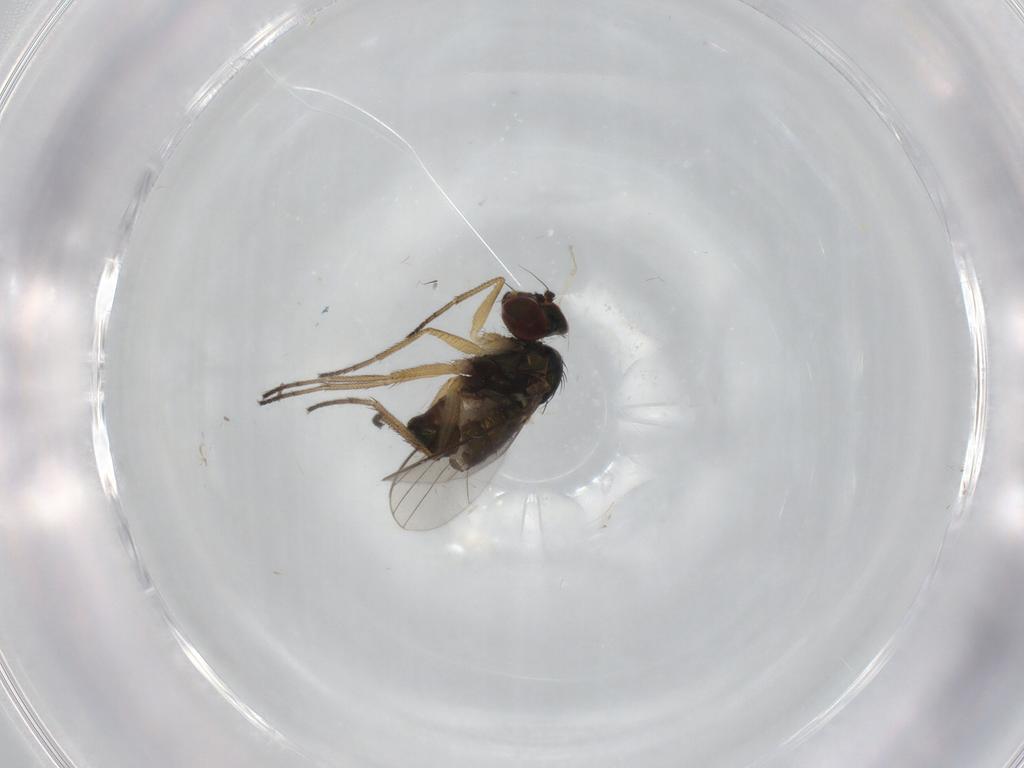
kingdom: Animalia
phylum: Arthropoda
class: Insecta
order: Diptera
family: Dolichopodidae
